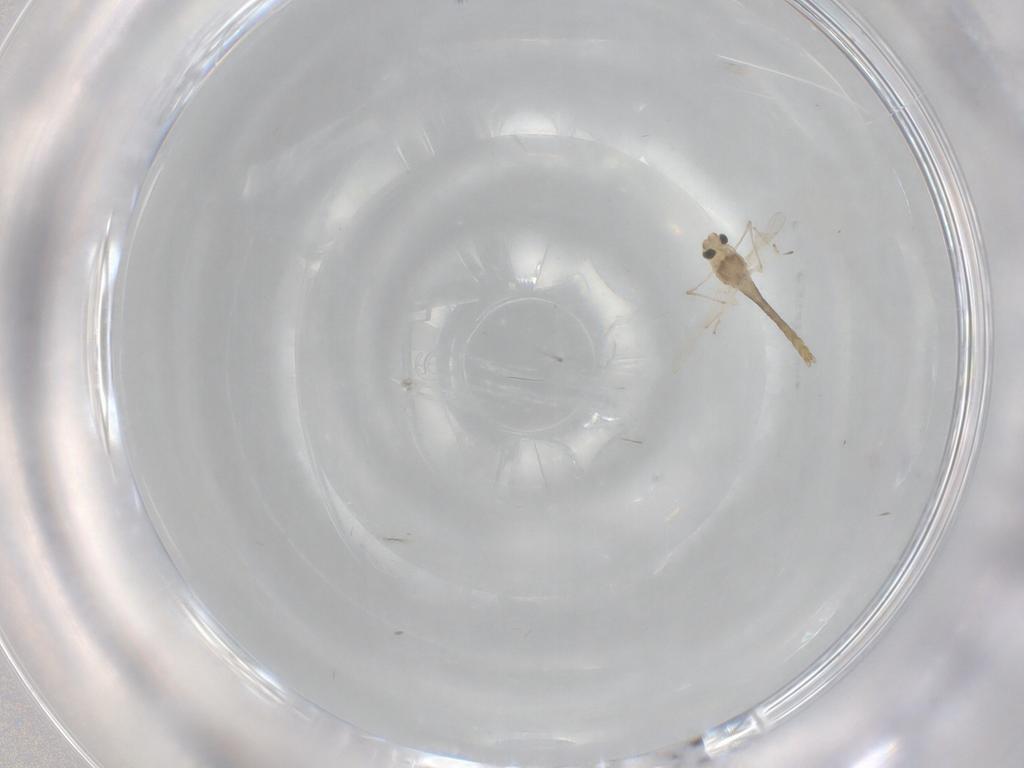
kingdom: Animalia
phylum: Arthropoda
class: Insecta
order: Diptera
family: Chironomidae
